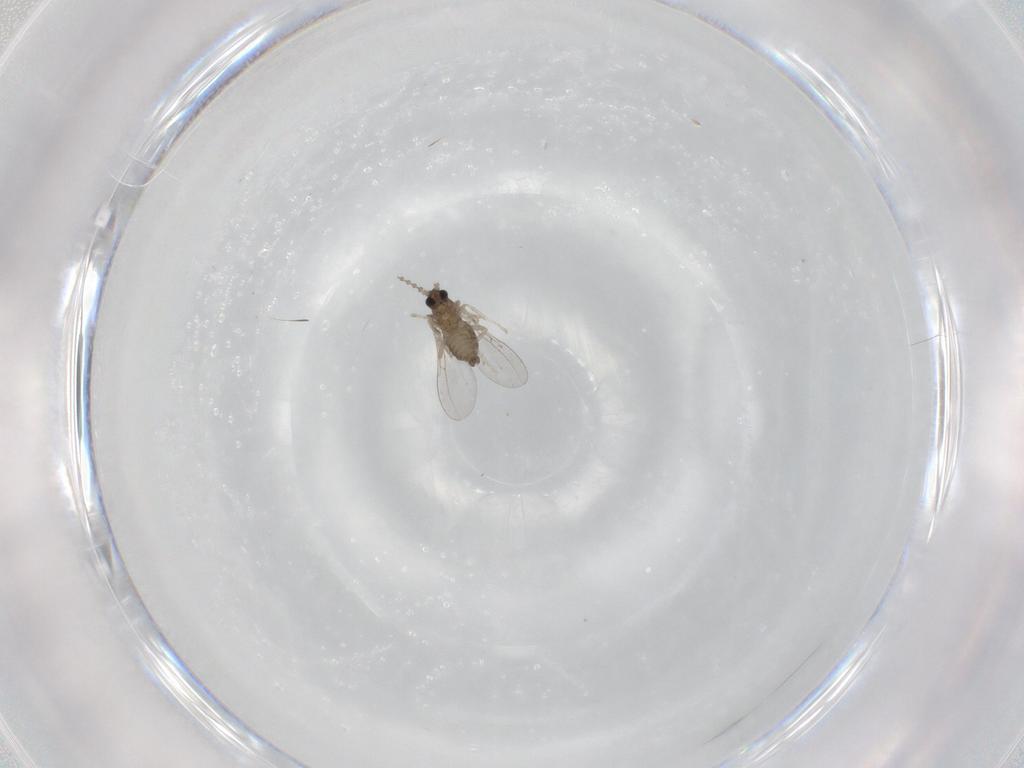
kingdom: Animalia
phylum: Arthropoda
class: Insecta
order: Diptera
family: Cecidomyiidae
